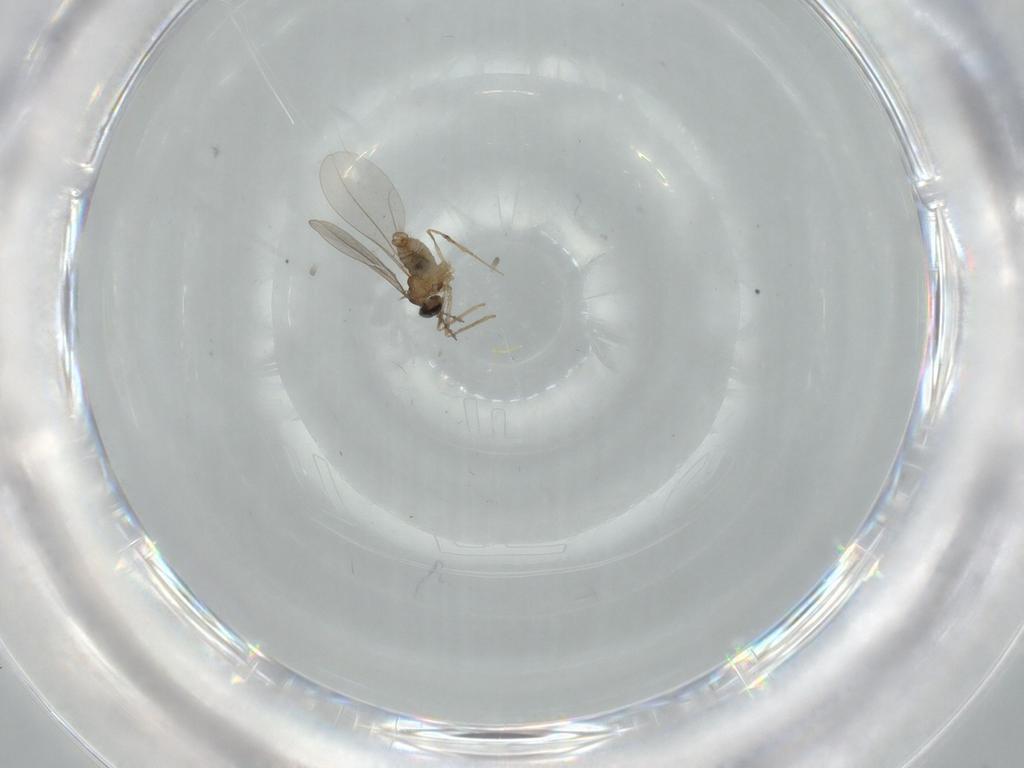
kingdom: Animalia
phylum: Arthropoda
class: Insecta
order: Diptera
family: Cecidomyiidae
